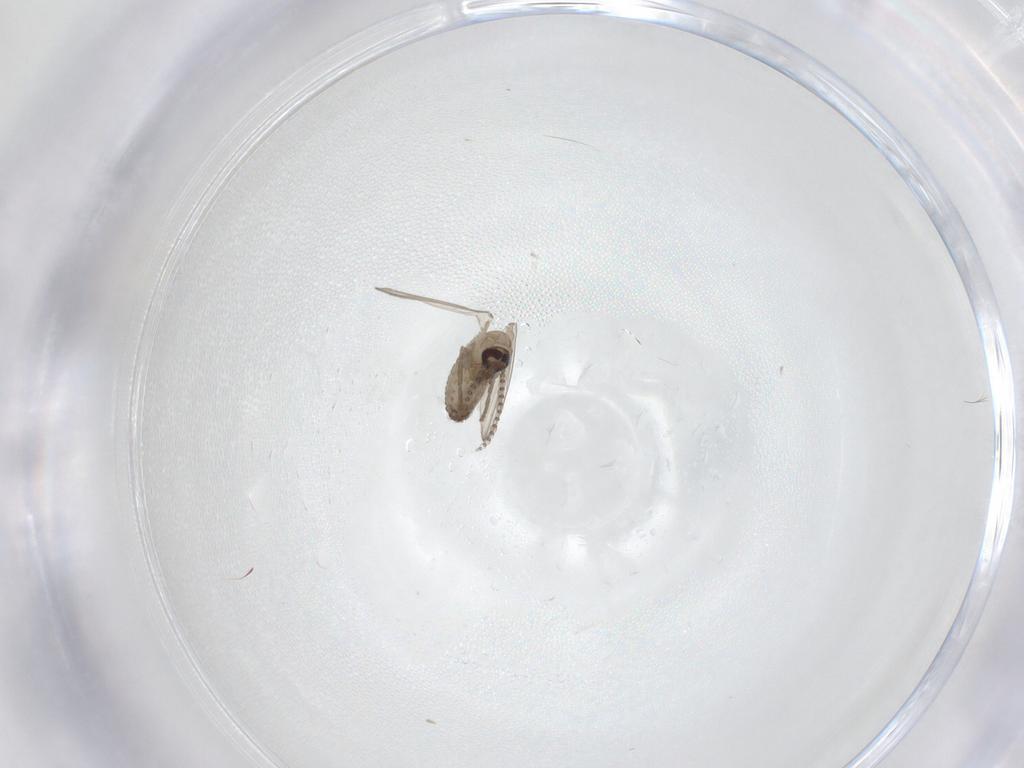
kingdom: Animalia
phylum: Arthropoda
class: Insecta
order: Diptera
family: Psychodidae
